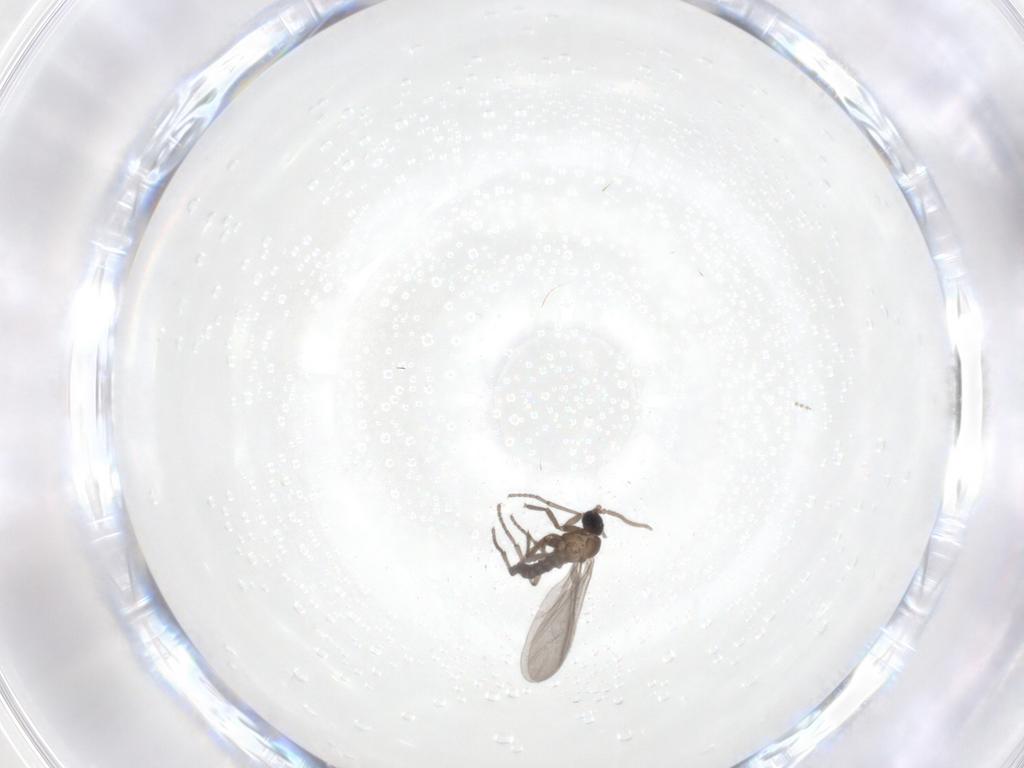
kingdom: Animalia
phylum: Arthropoda
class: Insecta
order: Diptera
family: Sciaridae
